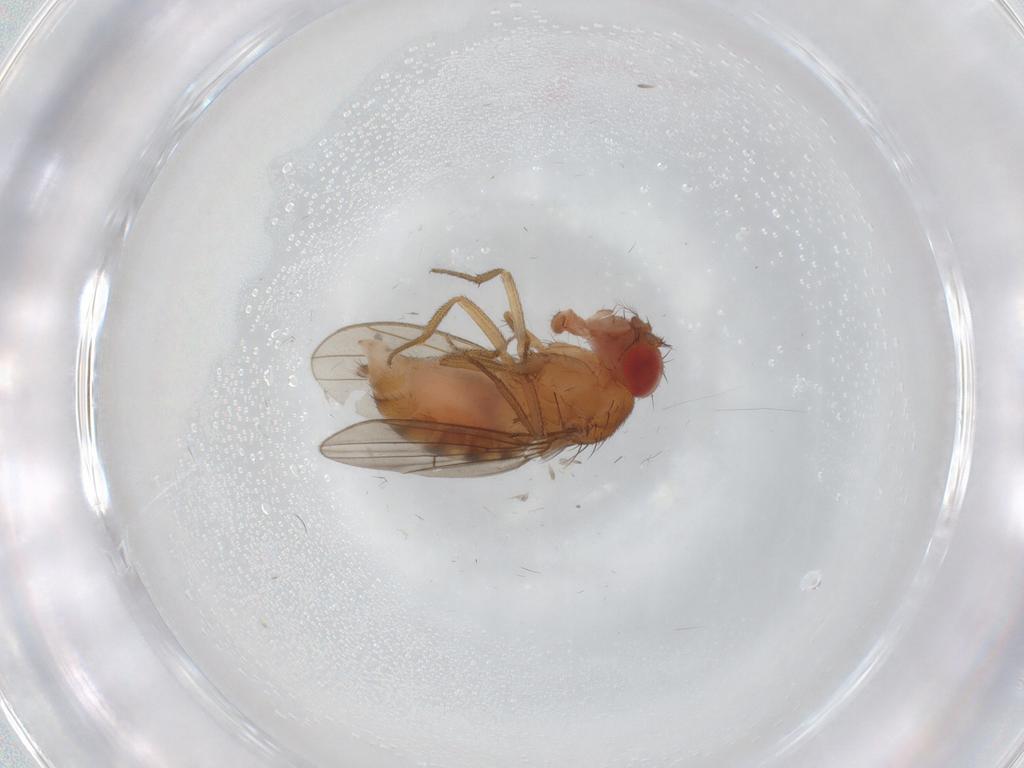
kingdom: Animalia
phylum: Arthropoda
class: Insecta
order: Diptera
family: Drosophilidae
